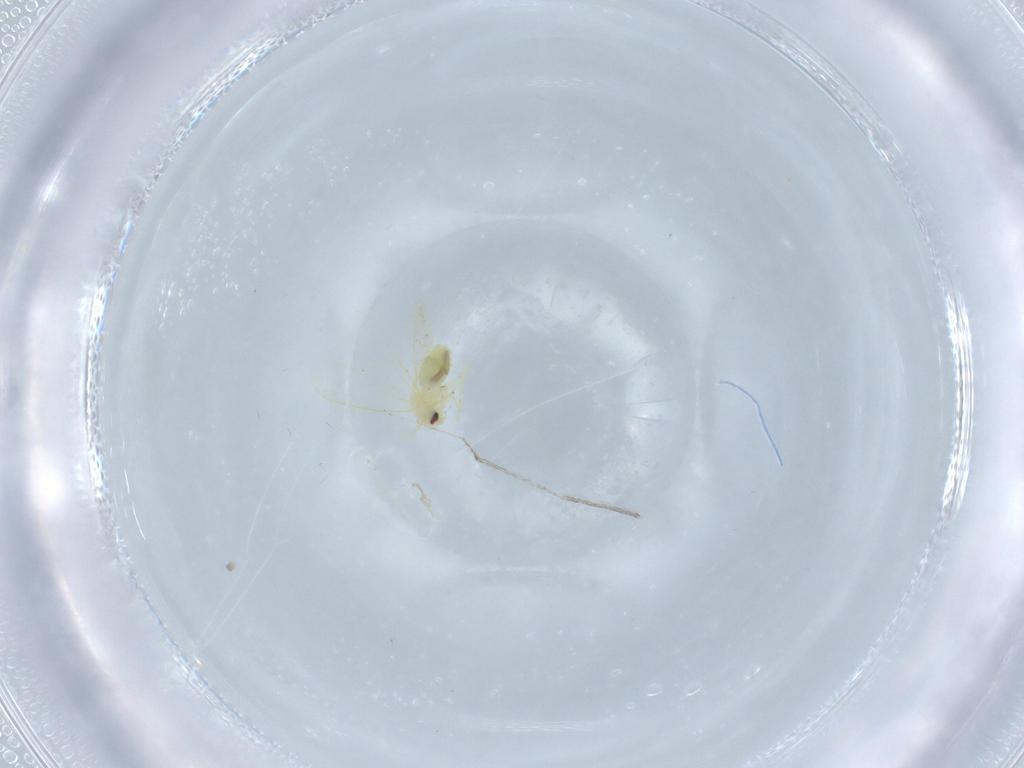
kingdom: Animalia
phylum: Arthropoda
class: Insecta
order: Hemiptera
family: Aleyrodidae
